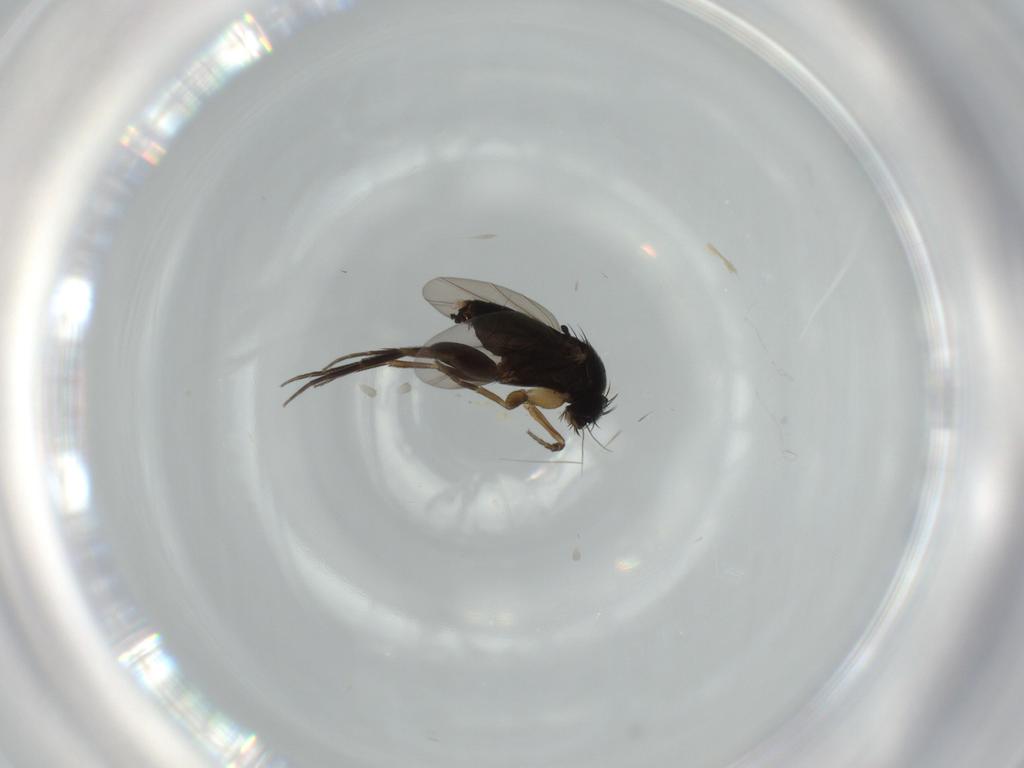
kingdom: Animalia
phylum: Arthropoda
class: Insecta
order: Diptera
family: Phoridae
